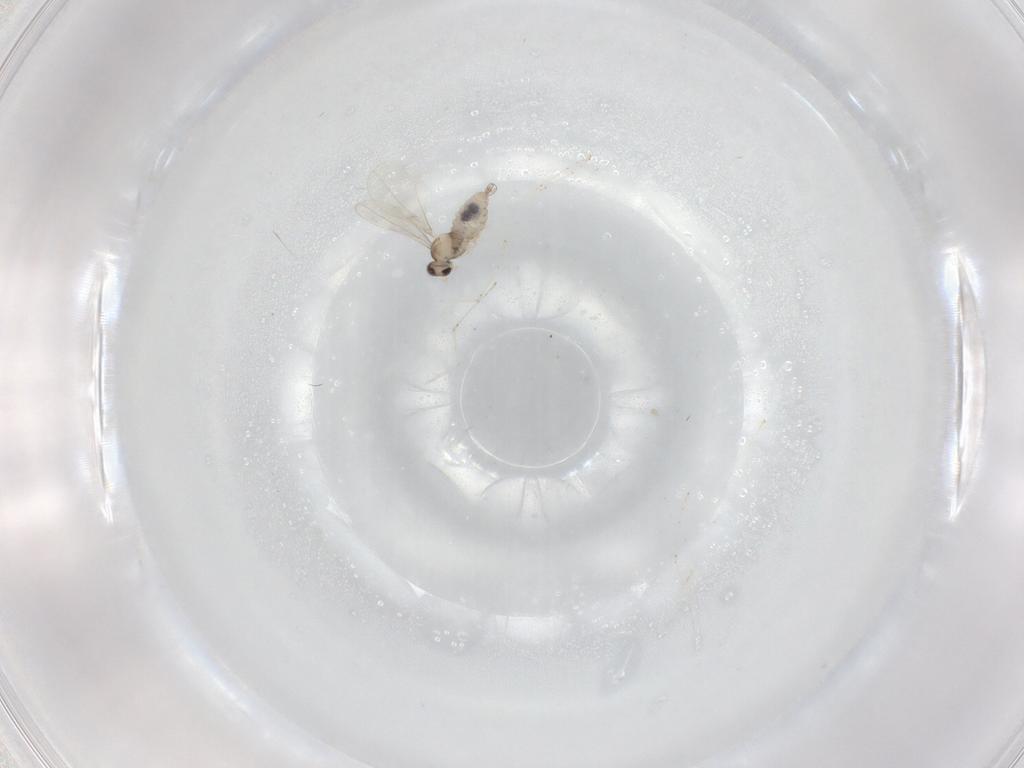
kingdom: Animalia
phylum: Arthropoda
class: Insecta
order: Diptera
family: Cecidomyiidae
